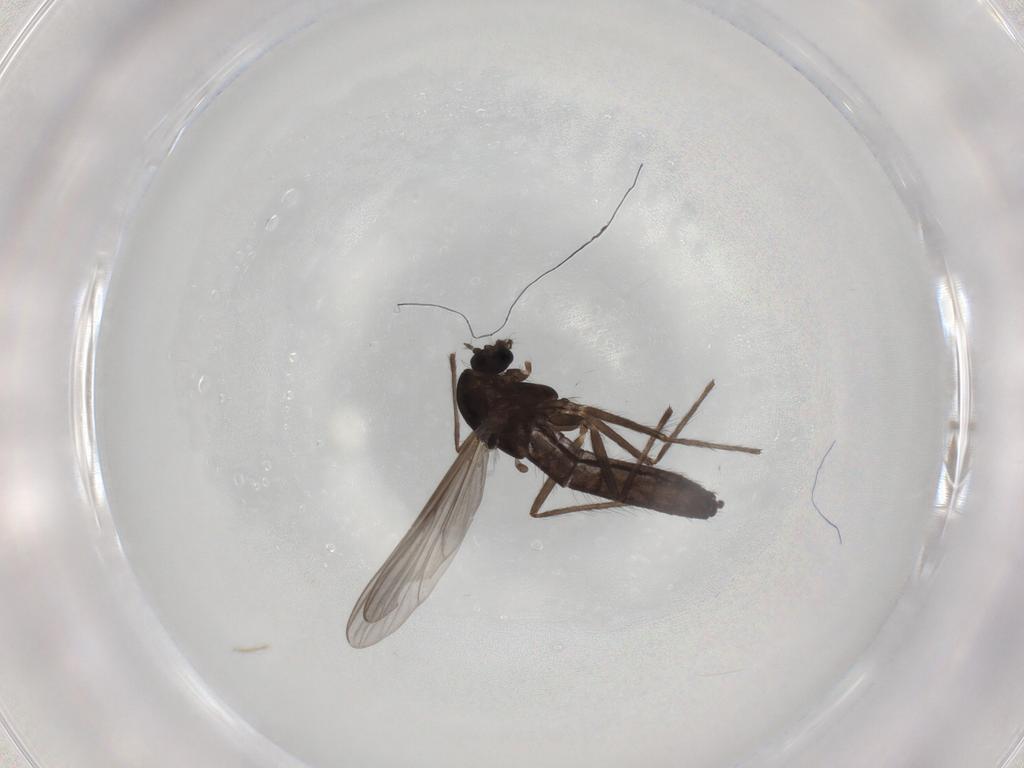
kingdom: Animalia
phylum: Arthropoda
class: Insecta
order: Diptera
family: Chironomidae
